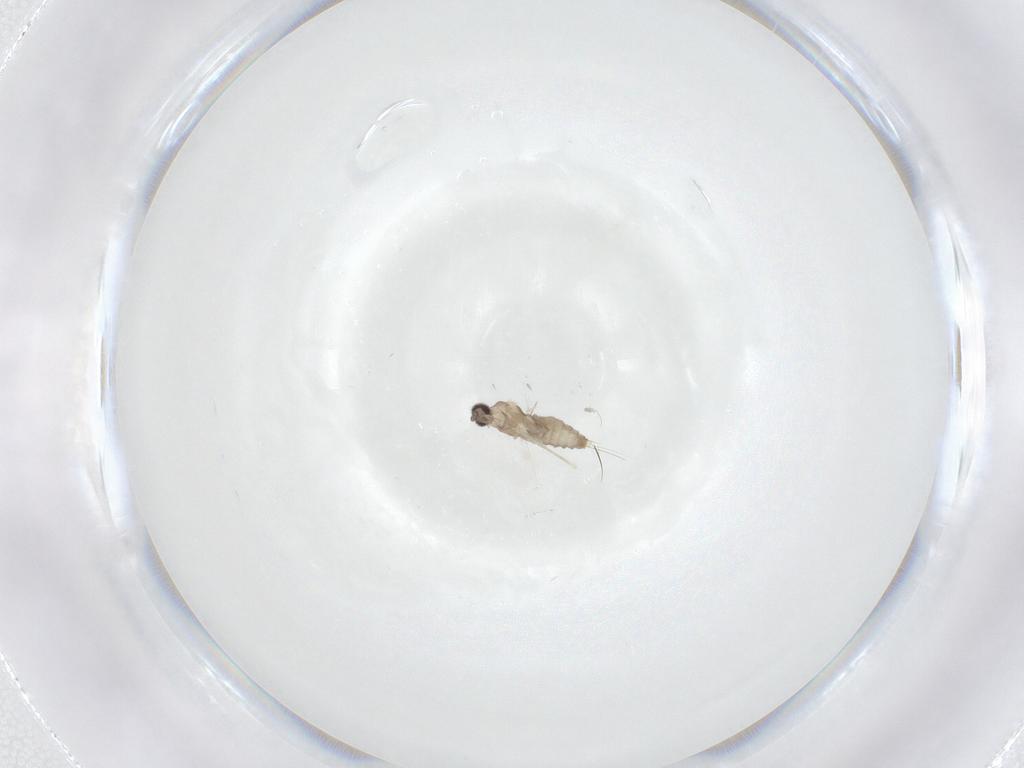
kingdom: Animalia
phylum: Arthropoda
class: Insecta
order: Diptera
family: Cecidomyiidae
